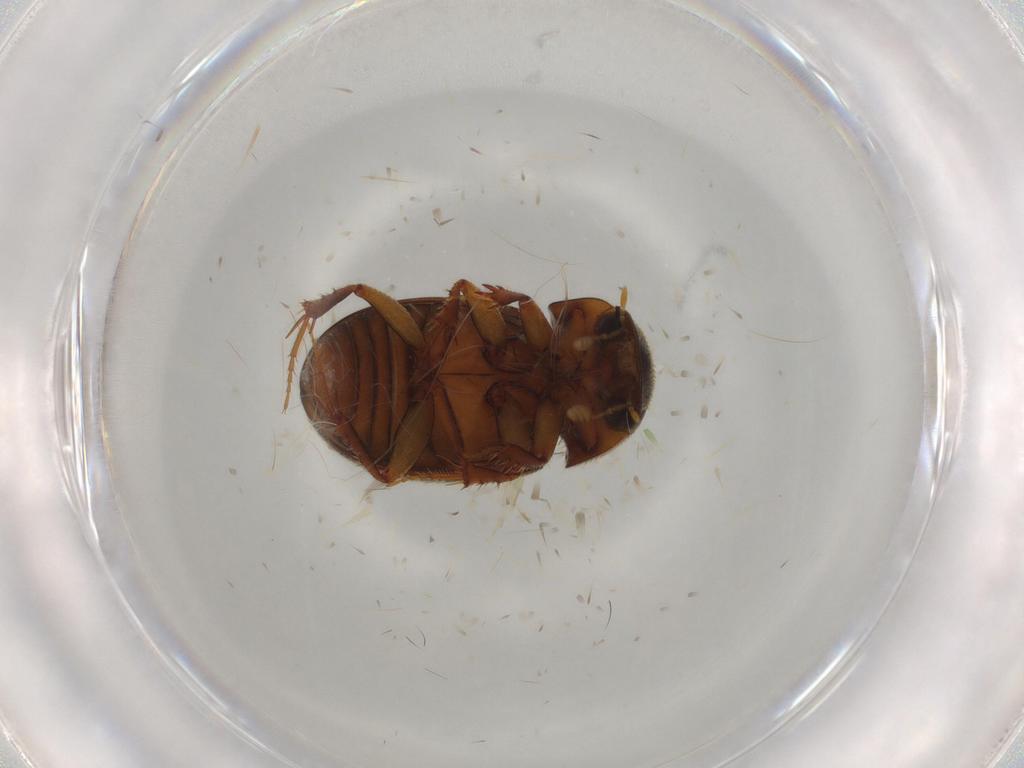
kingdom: Animalia
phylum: Arthropoda
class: Insecta
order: Coleoptera
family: Scarabaeidae
